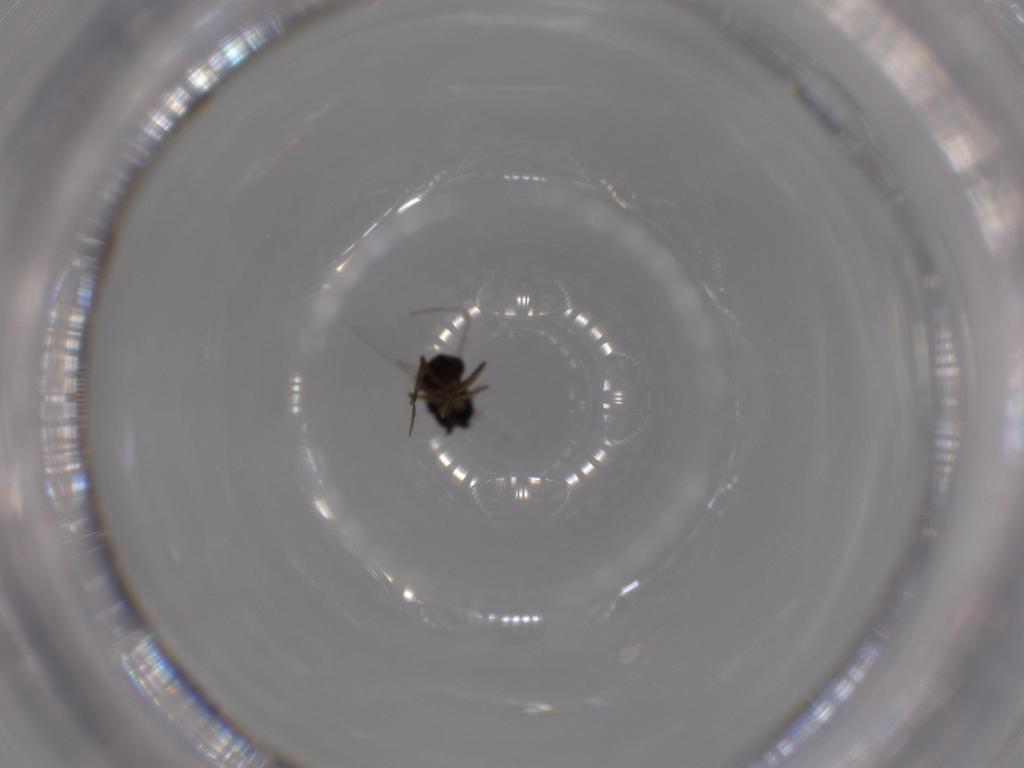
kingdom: Animalia
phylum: Arthropoda
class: Insecta
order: Diptera
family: Phoridae
